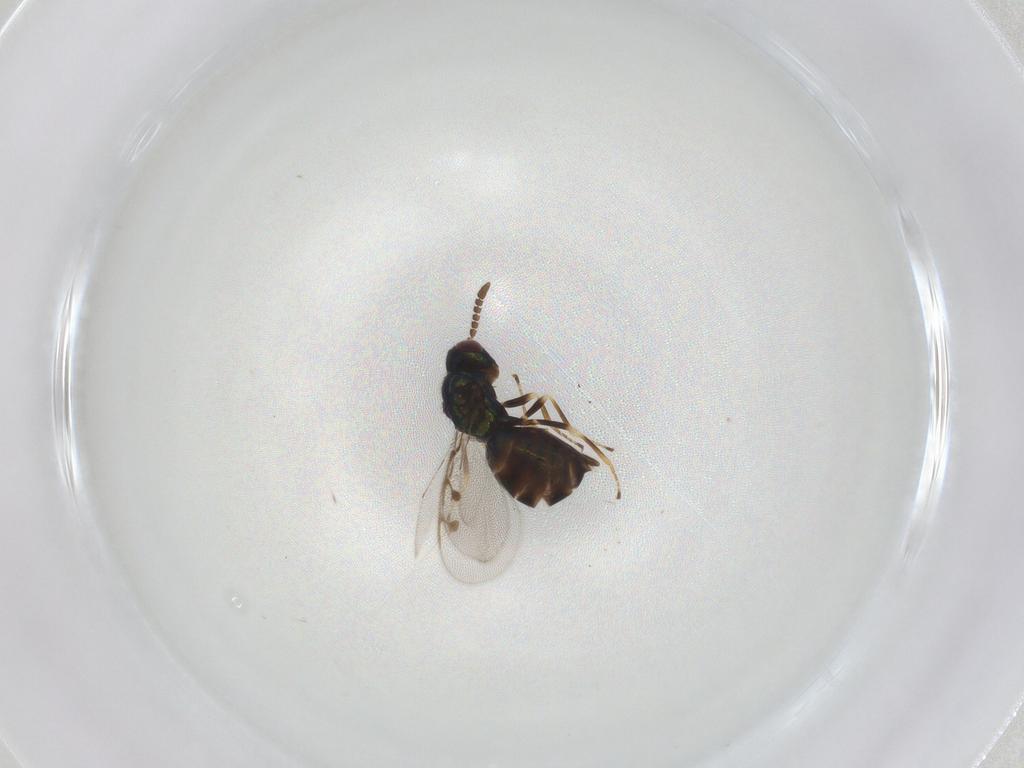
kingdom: Animalia
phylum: Arthropoda
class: Insecta
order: Hymenoptera
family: Pirenidae
